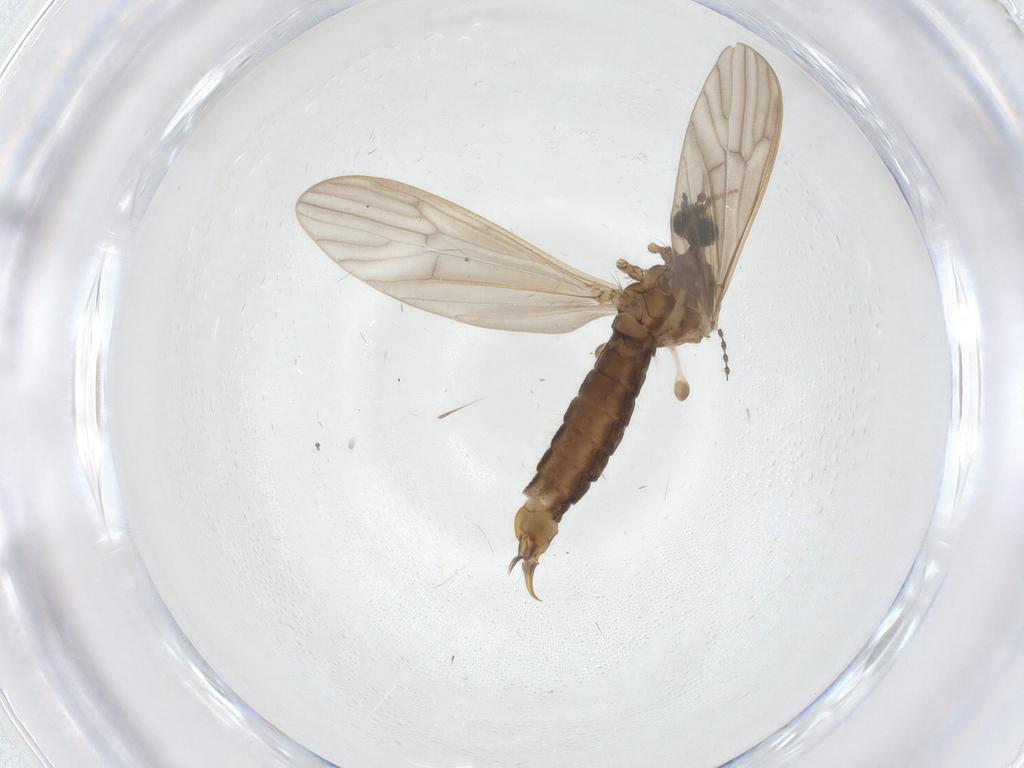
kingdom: Animalia
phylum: Arthropoda
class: Insecta
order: Diptera
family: Limoniidae
